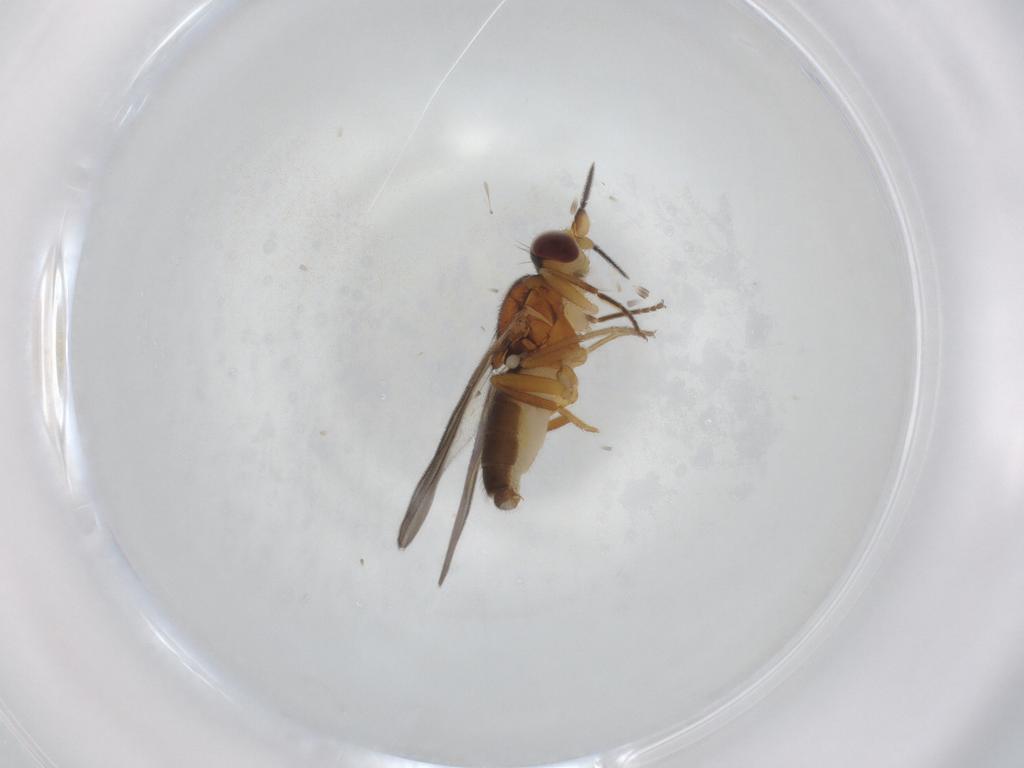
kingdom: Animalia
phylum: Arthropoda
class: Insecta
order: Diptera
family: Chloropidae
